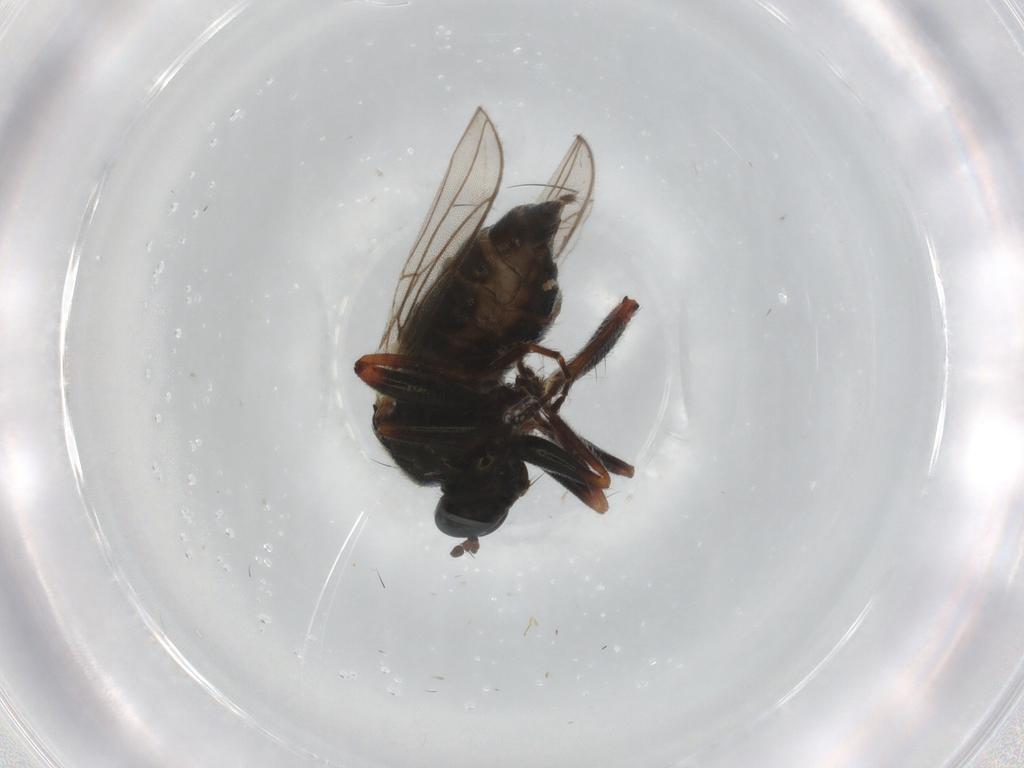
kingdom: Animalia
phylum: Arthropoda
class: Insecta
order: Diptera
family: Hybotidae
